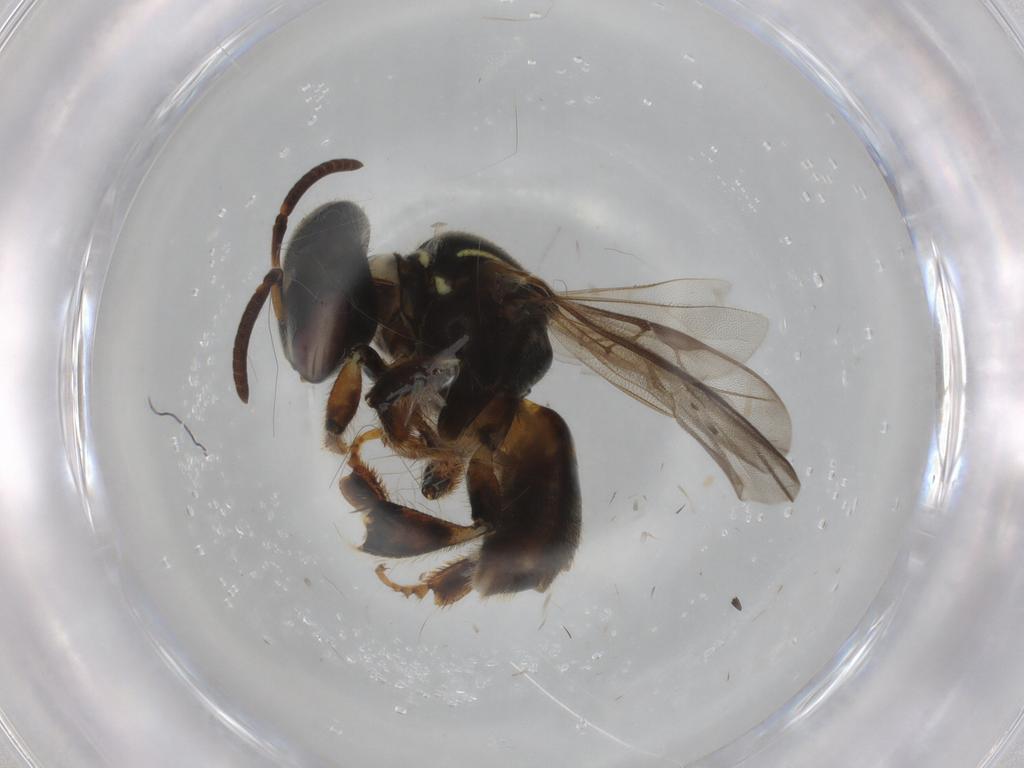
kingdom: Animalia
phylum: Arthropoda
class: Insecta
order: Hymenoptera
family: Apidae
